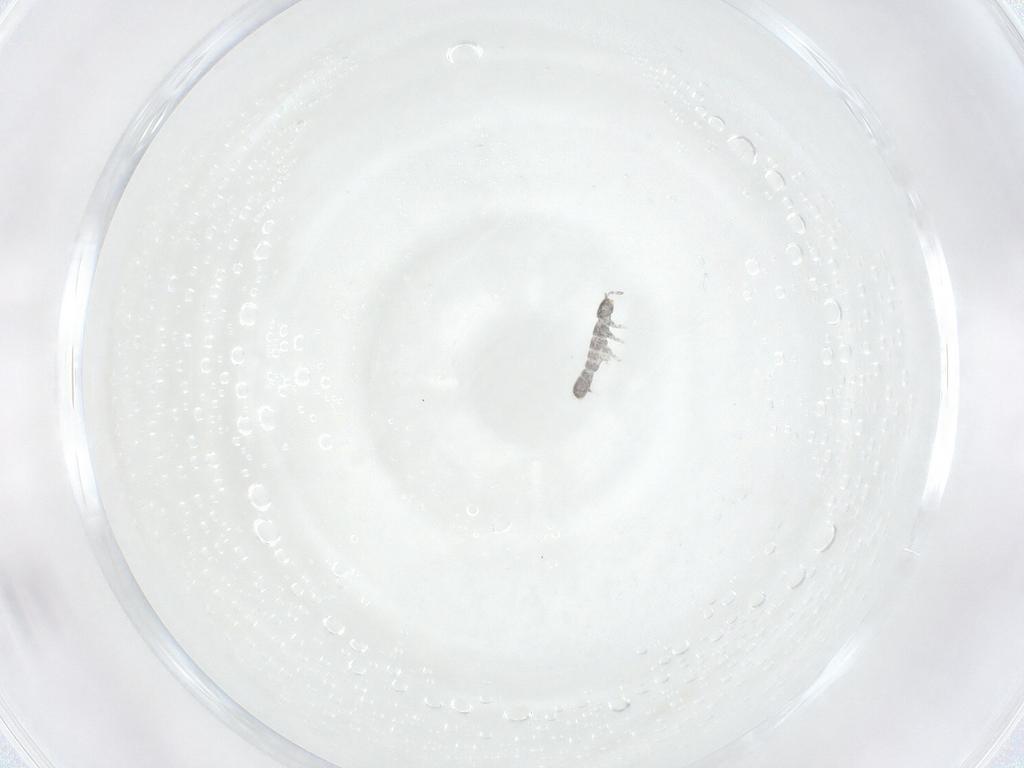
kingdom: Animalia
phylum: Arthropoda
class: Collembola
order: Entomobryomorpha
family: Isotomidae
